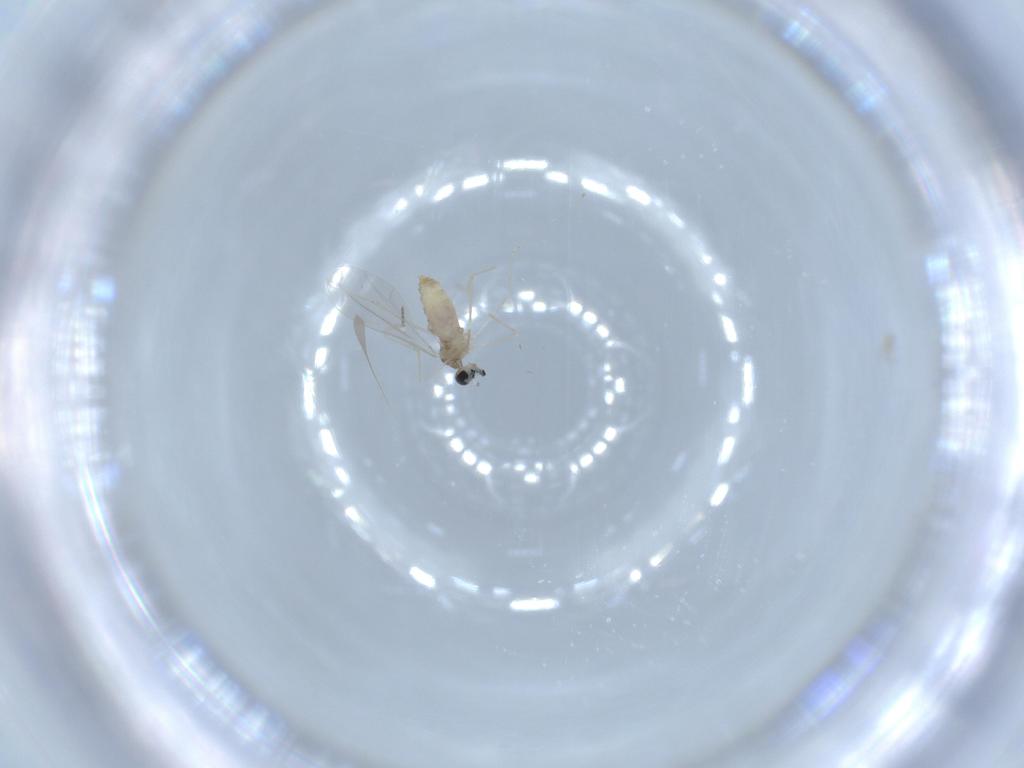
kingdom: Animalia
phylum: Arthropoda
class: Insecta
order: Diptera
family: Cecidomyiidae
